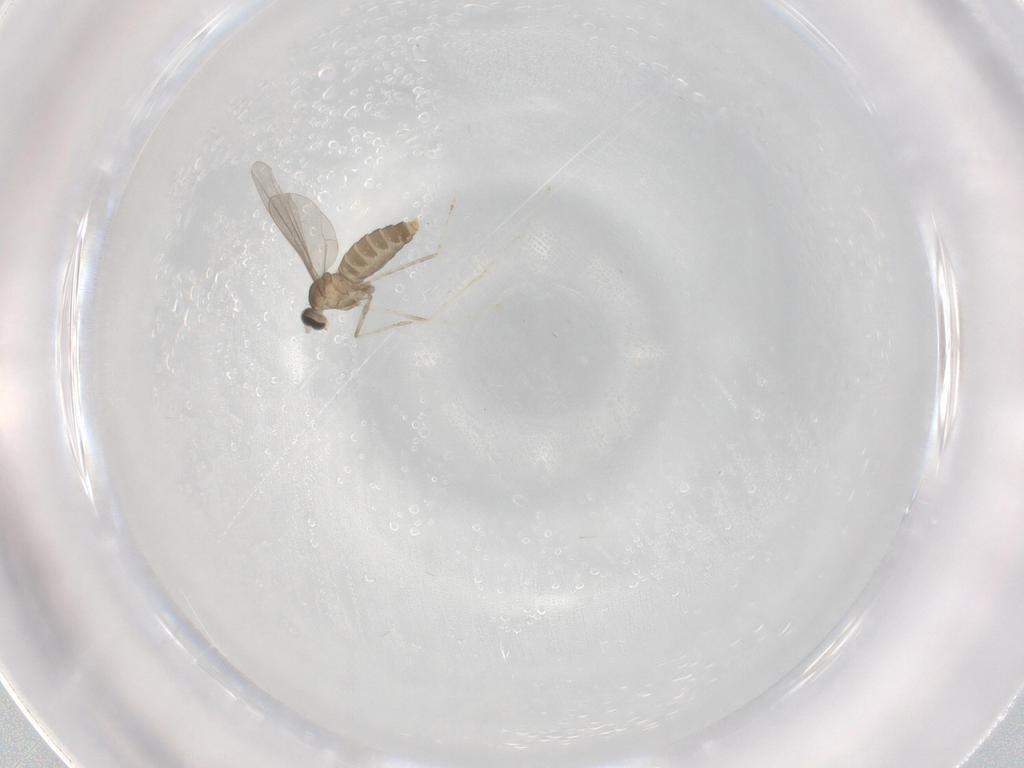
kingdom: Animalia
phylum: Arthropoda
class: Insecta
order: Diptera
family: Cecidomyiidae
